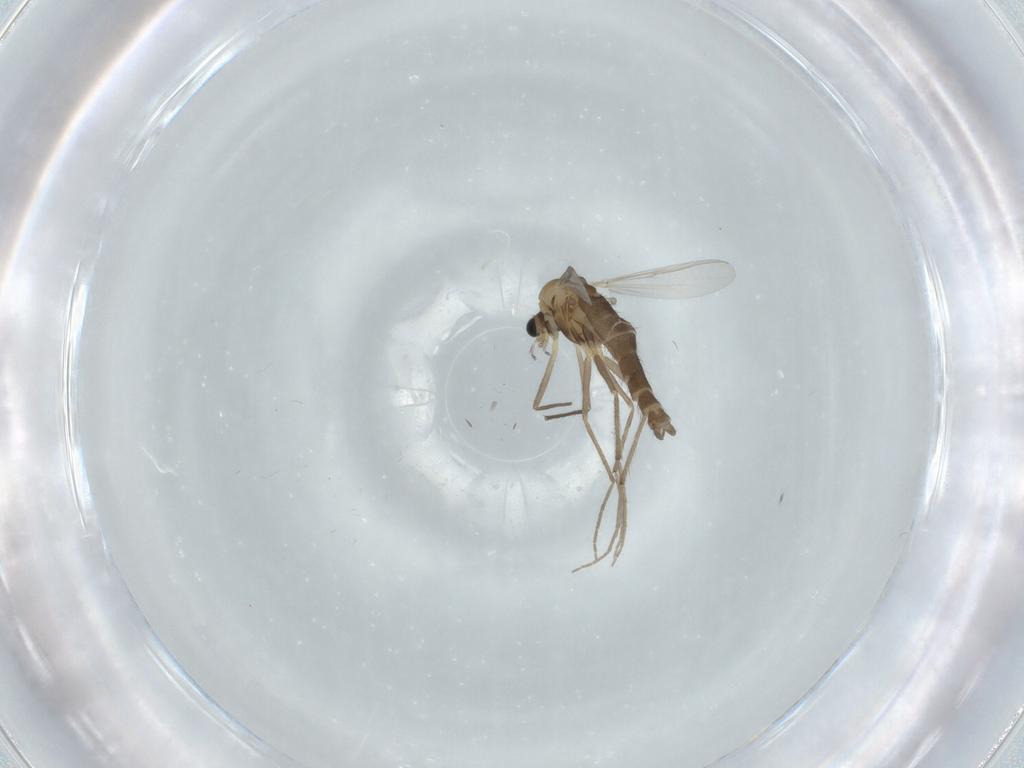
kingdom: Animalia
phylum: Arthropoda
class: Insecta
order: Diptera
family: Chironomidae
